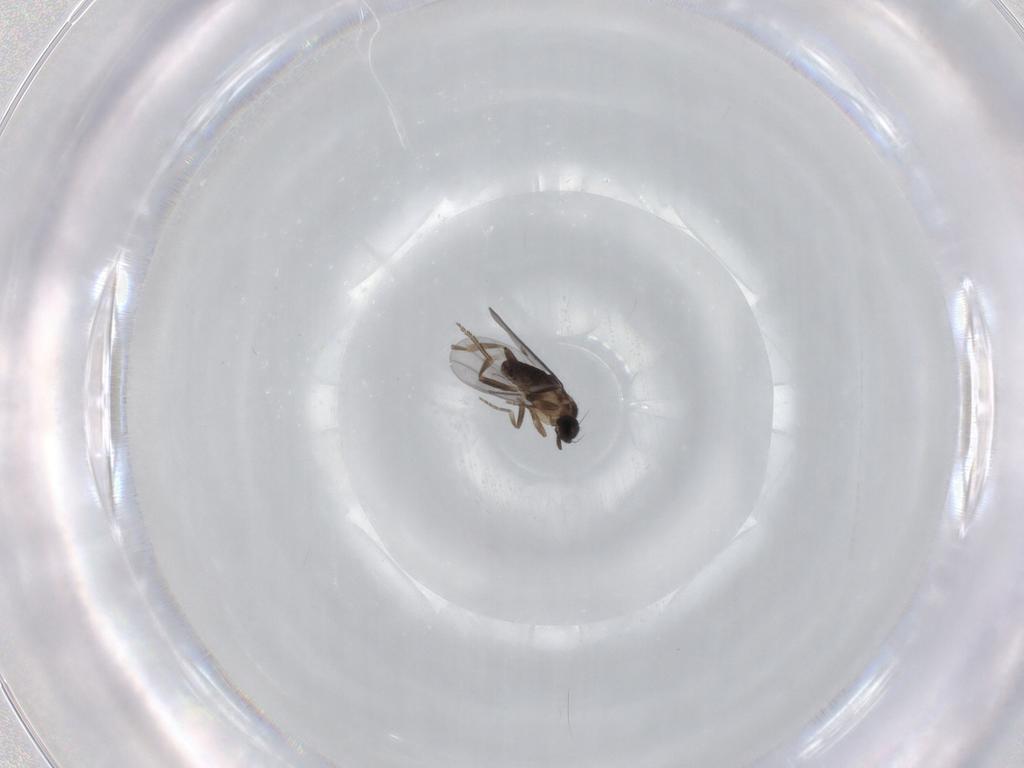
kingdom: Animalia
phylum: Arthropoda
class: Insecta
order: Diptera
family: Phoridae
